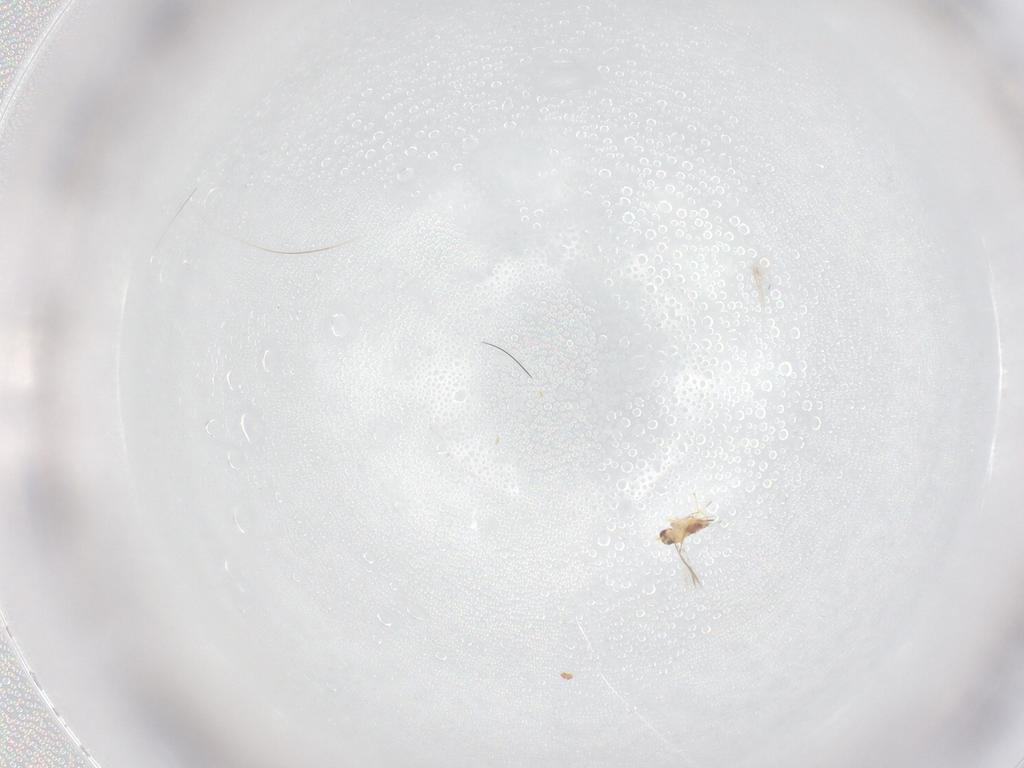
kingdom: Animalia
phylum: Arthropoda
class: Insecta
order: Hymenoptera
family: Mymaridae
